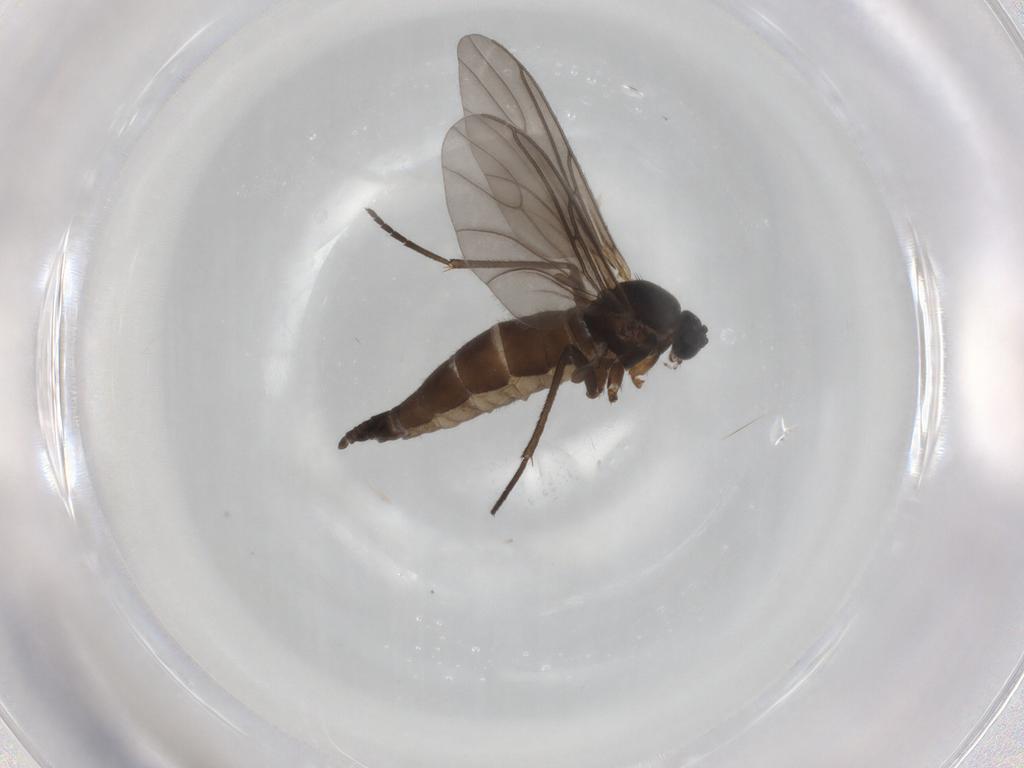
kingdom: Animalia
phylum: Arthropoda
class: Insecta
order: Diptera
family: Sciaridae
